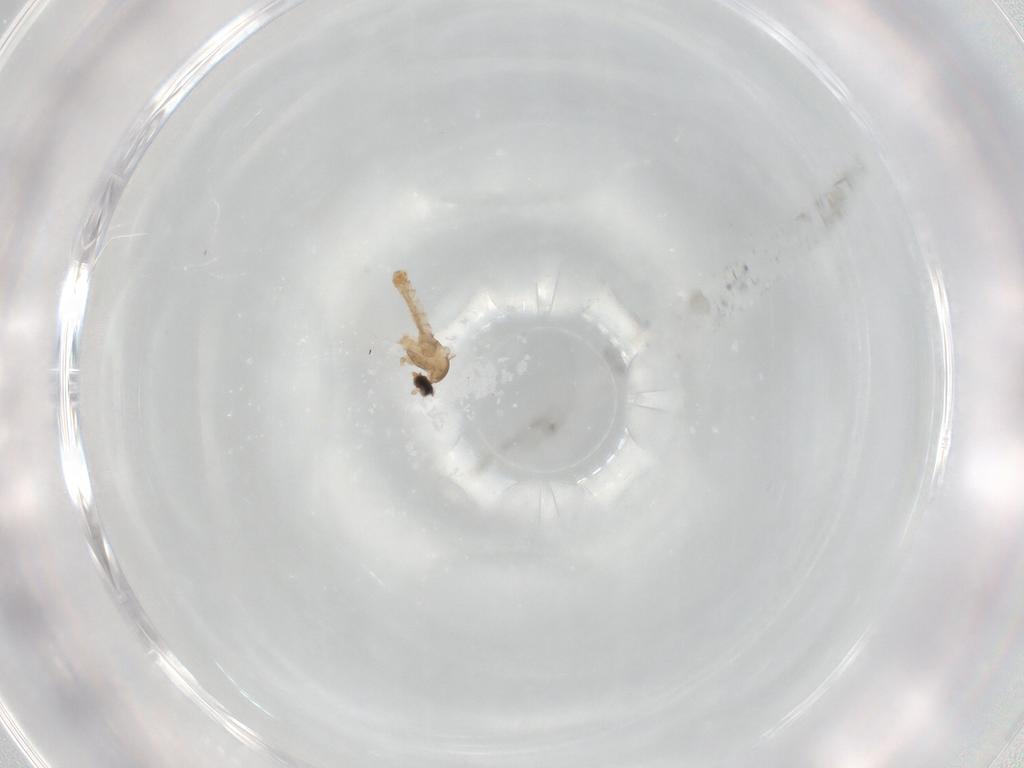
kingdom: Animalia
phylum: Arthropoda
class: Insecta
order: Diptera
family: Cecidomyiidae
